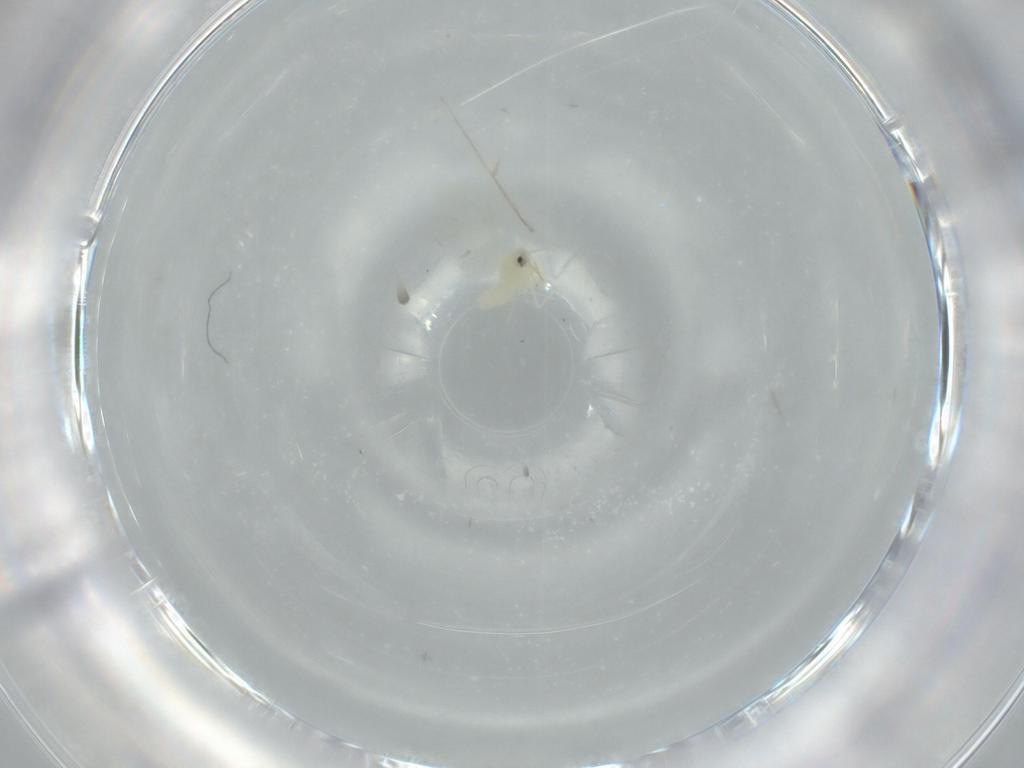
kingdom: Animalia
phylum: Arthropoda
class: Insecta
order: Hemiptera
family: Aleyrodidae
